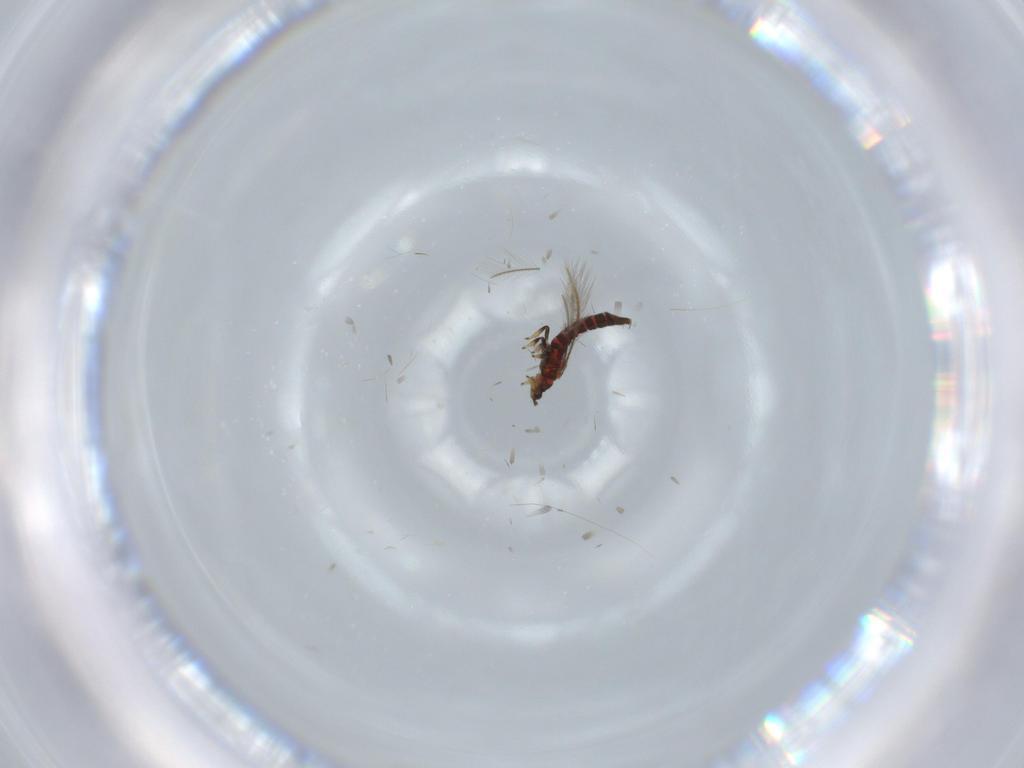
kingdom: Animalia
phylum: Arthropoda
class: Insecta
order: Thysanoptera
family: Thripidae
